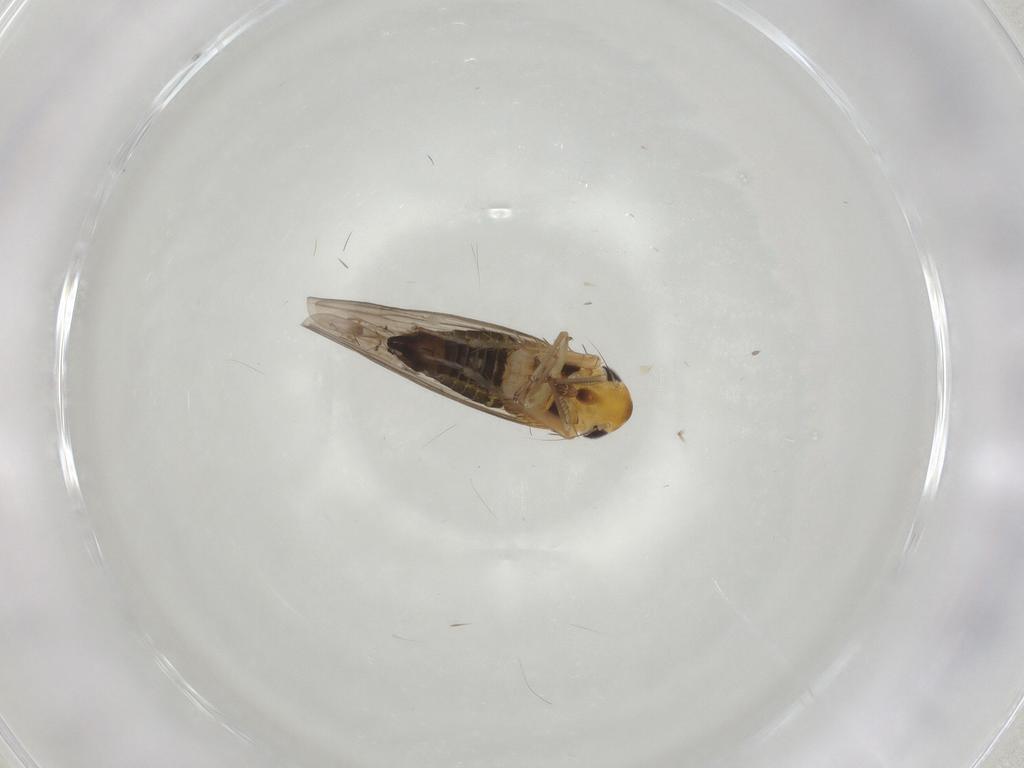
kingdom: Animalia
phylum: Arthropoda
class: Insecta
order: Hemiptera
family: Cicadellidae
